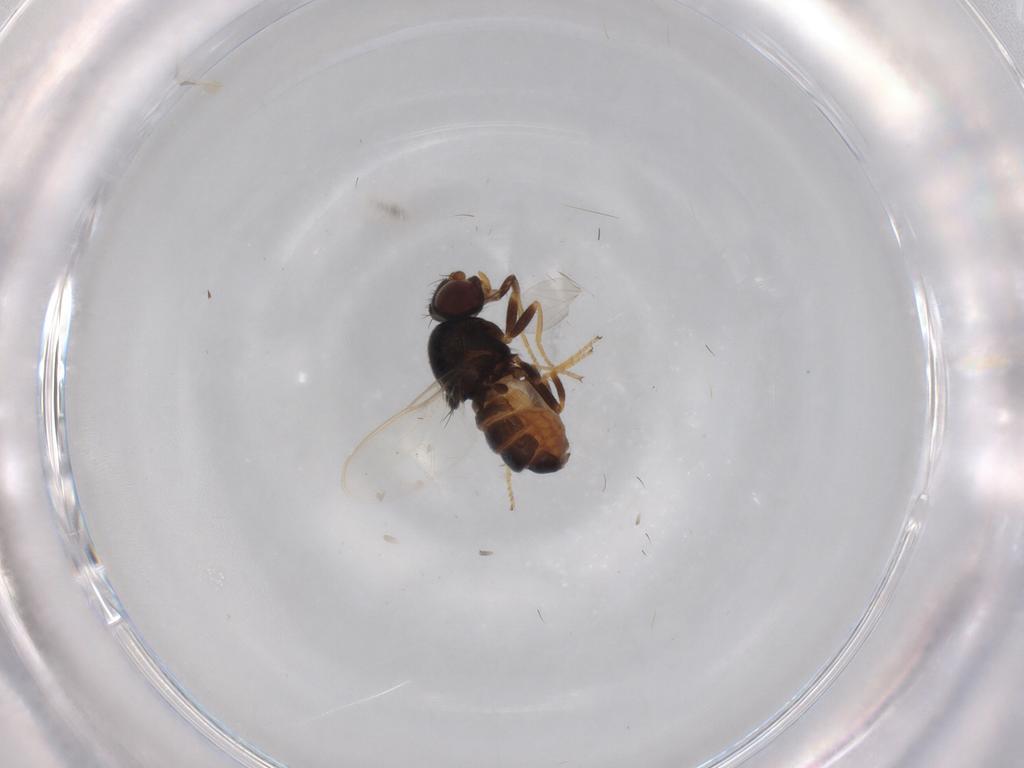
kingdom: Animalia
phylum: Arthropoda
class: Insecta
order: Diptera
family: Chloropidae
